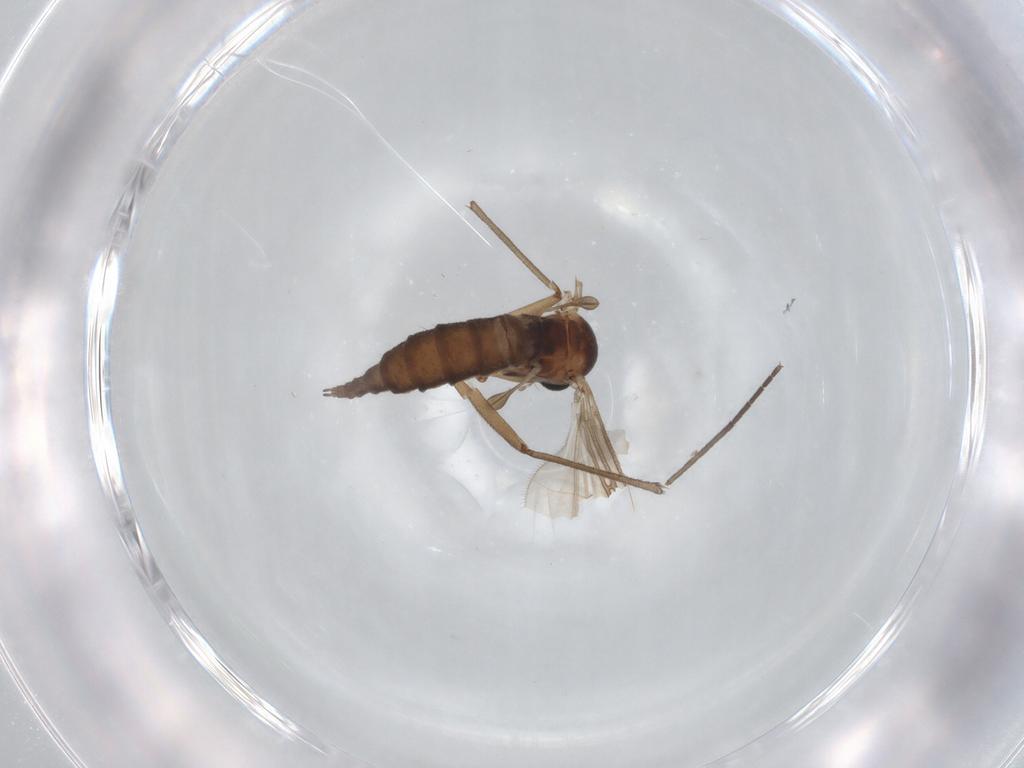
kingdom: Animalia
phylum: Arthropoda
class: Insecta
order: Diptera
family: Sciaridae
